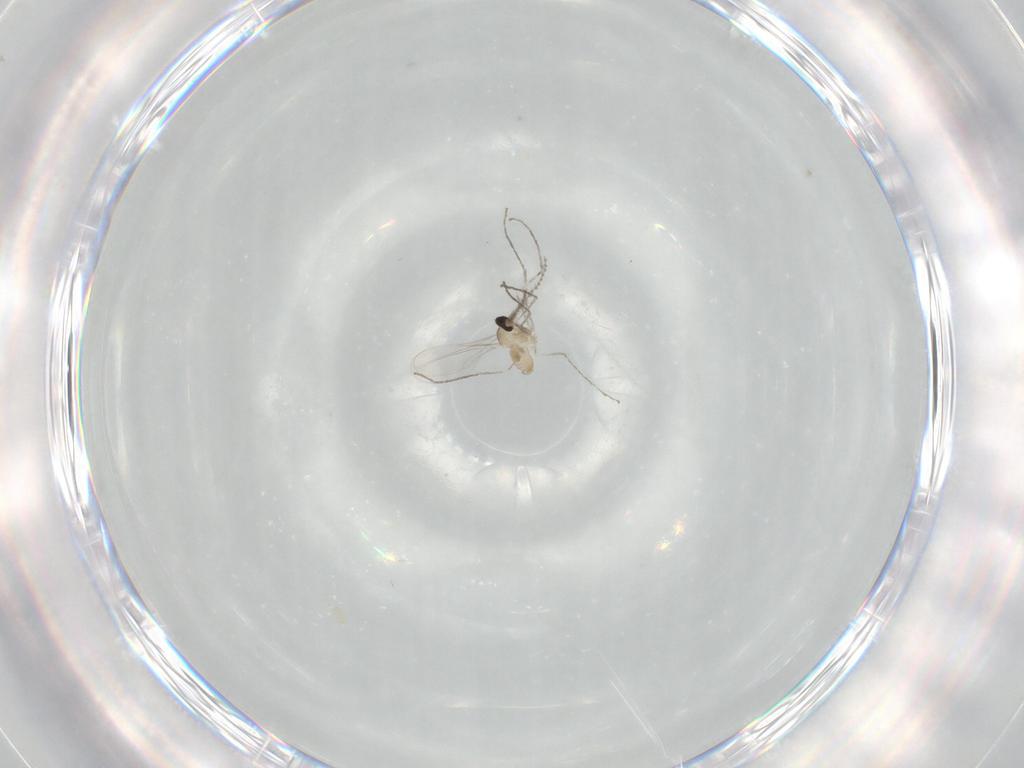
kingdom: Animalia
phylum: Arthropoda
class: Insecta
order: Diptera
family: Cecidomyiidae
